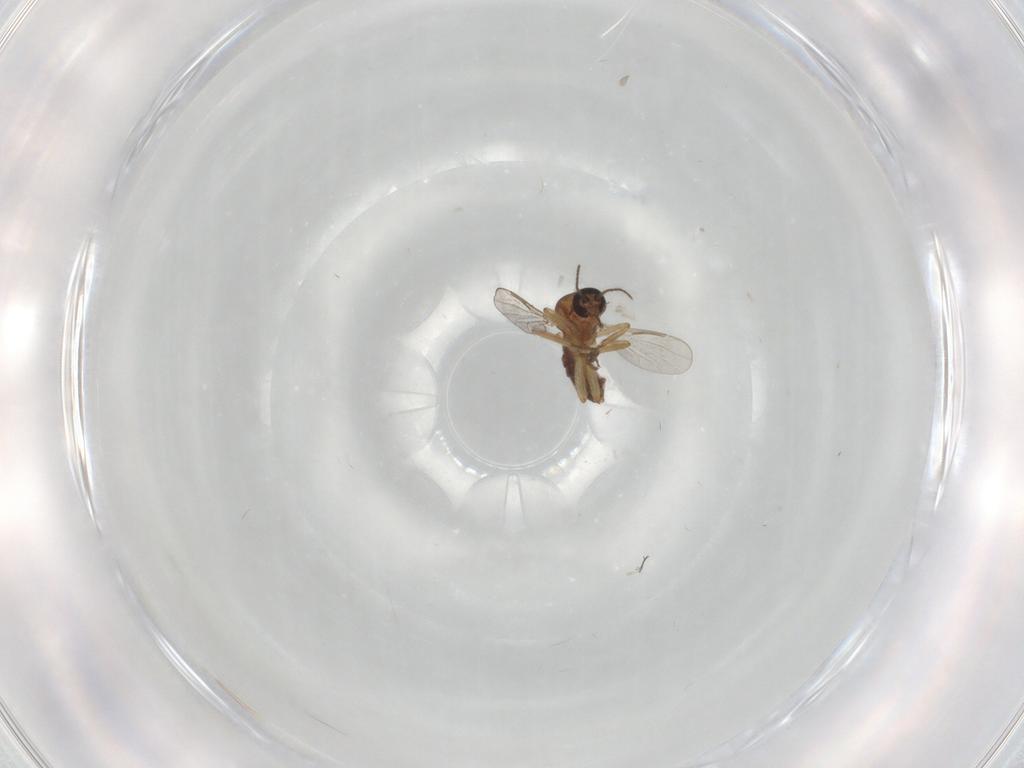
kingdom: Animalia
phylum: Arthropoda
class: Insecta
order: Diptera
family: Ceratopogonidae
